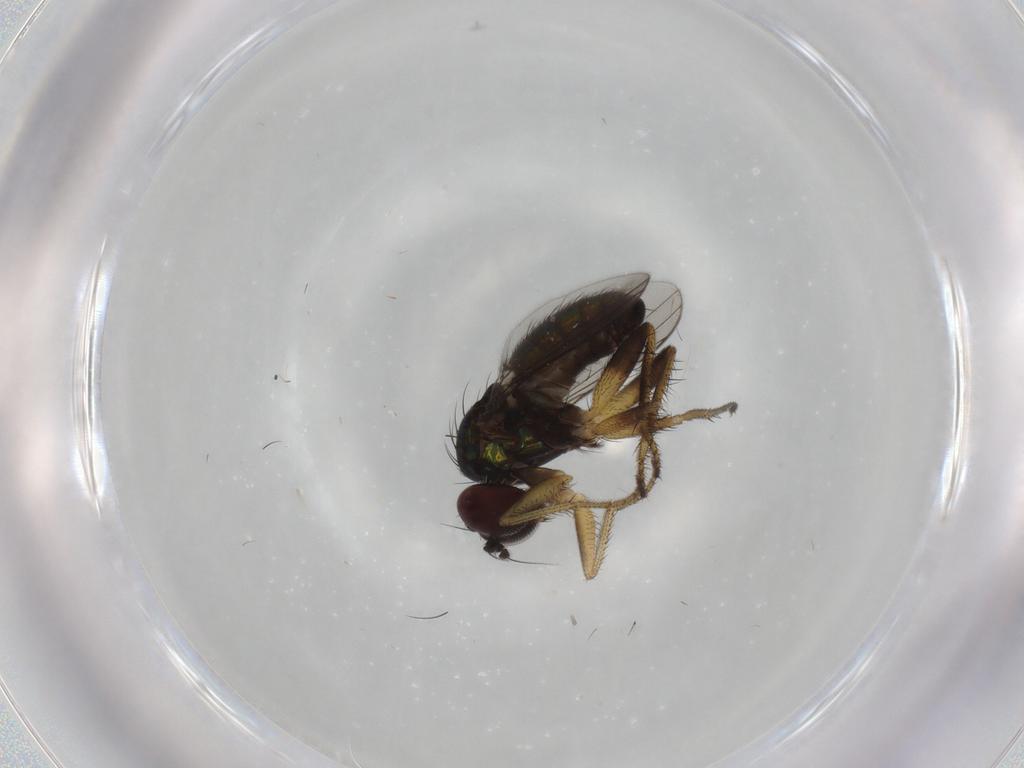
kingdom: Animalia
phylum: Arthropoda
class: Insecta
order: Diptera
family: Dolichopodidae
